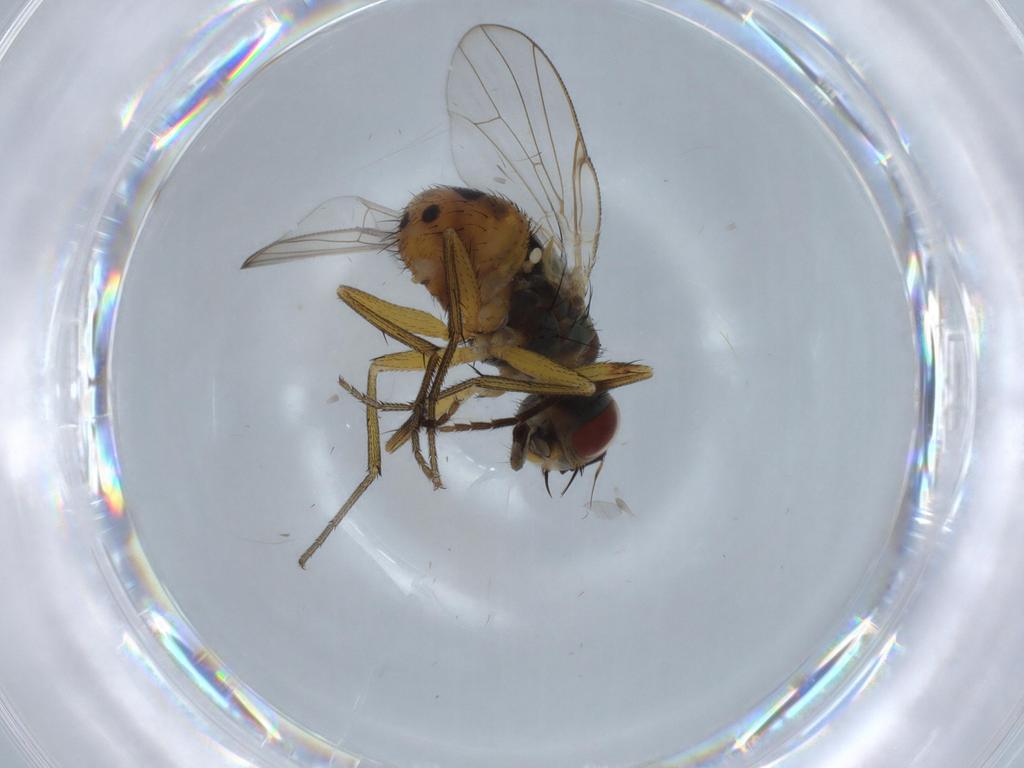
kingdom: Animalia
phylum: Arthropoda
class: Insecta
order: Diptera
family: Muscidae
